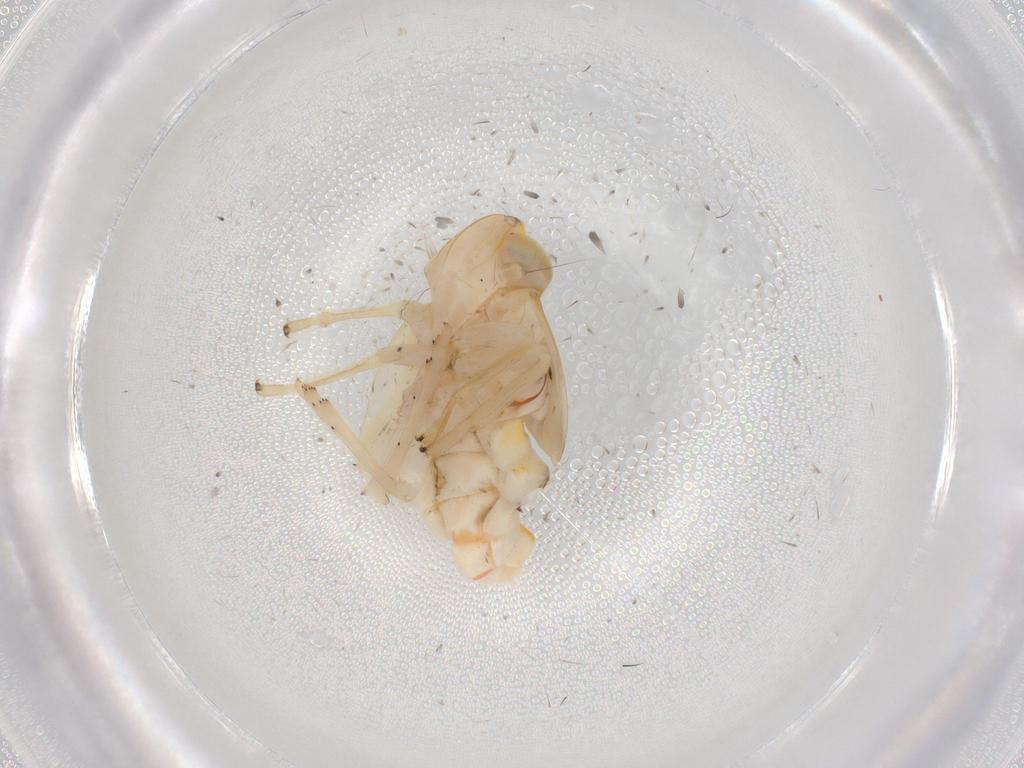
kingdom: Animalia
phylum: Arthropoda
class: Insecta
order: Hemiptera
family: Nogodinidae
